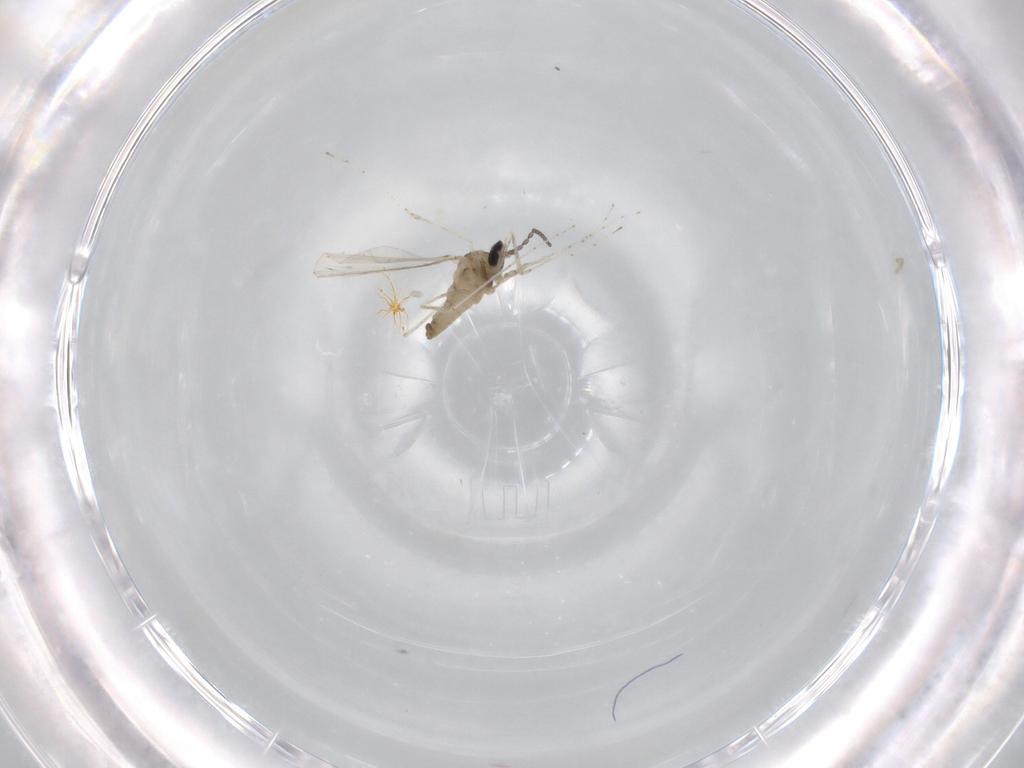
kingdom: Animalia
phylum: Arthropoda
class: Insecta
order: Diptera
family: Cecidomyiidae
